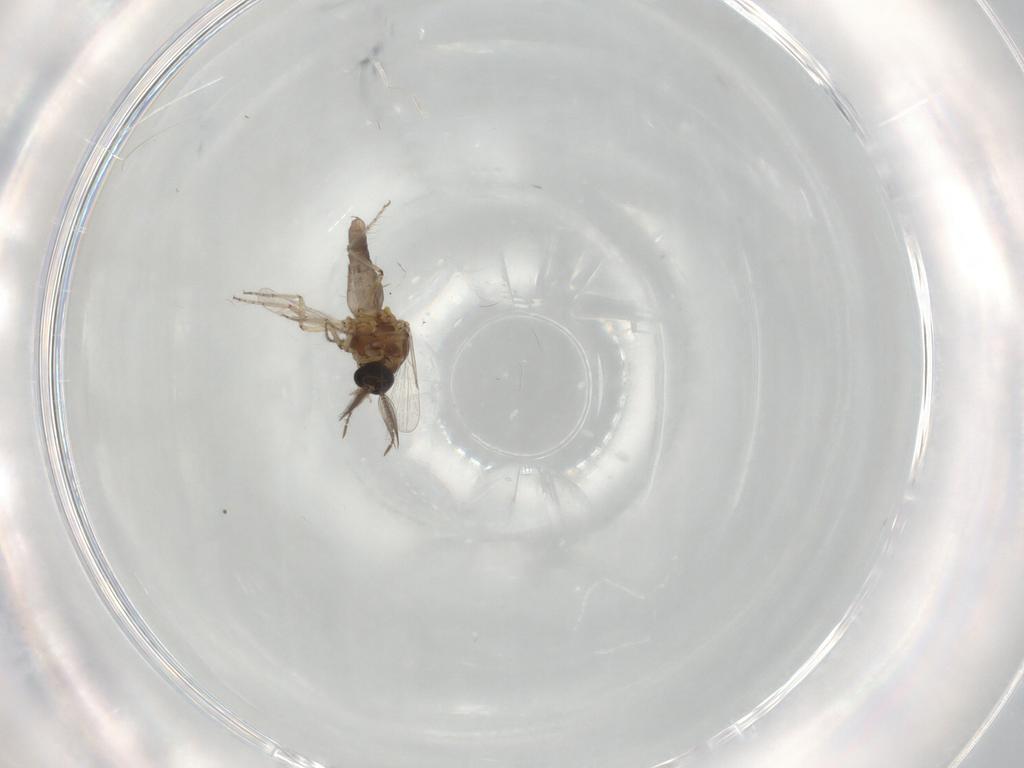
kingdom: Animalia
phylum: Arthropoda
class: Insecta
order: Diptera
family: Ceratopogonidae
